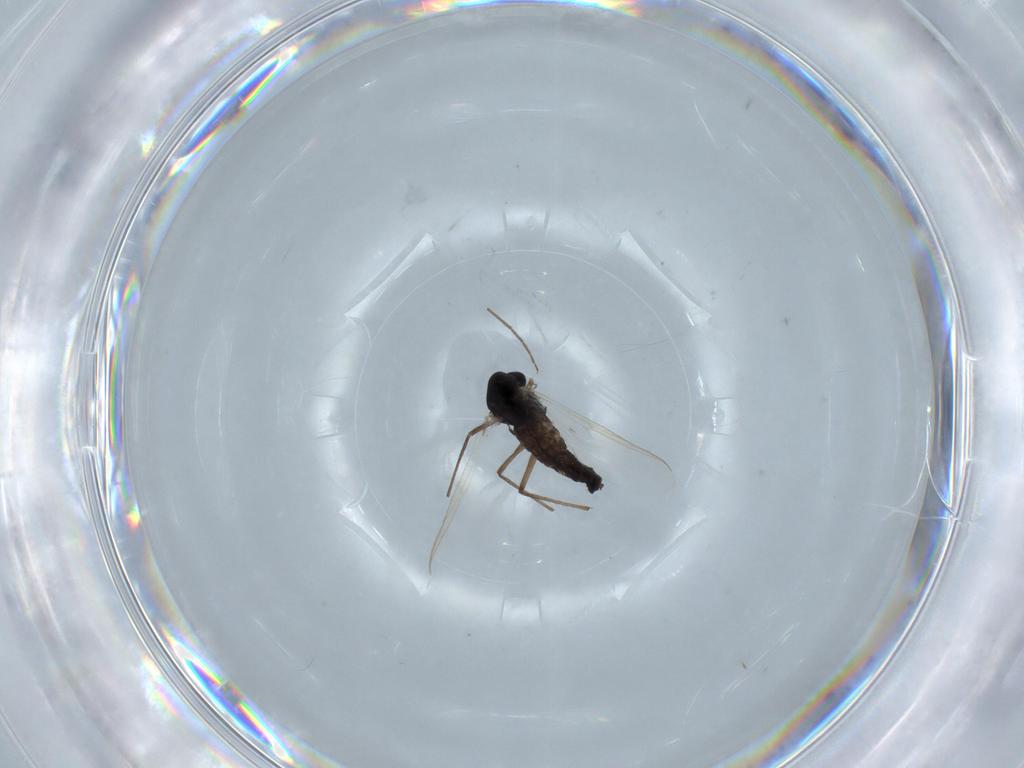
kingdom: Animalia
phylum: Arthropoda
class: Insecta
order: Diptera
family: Chironomidae
